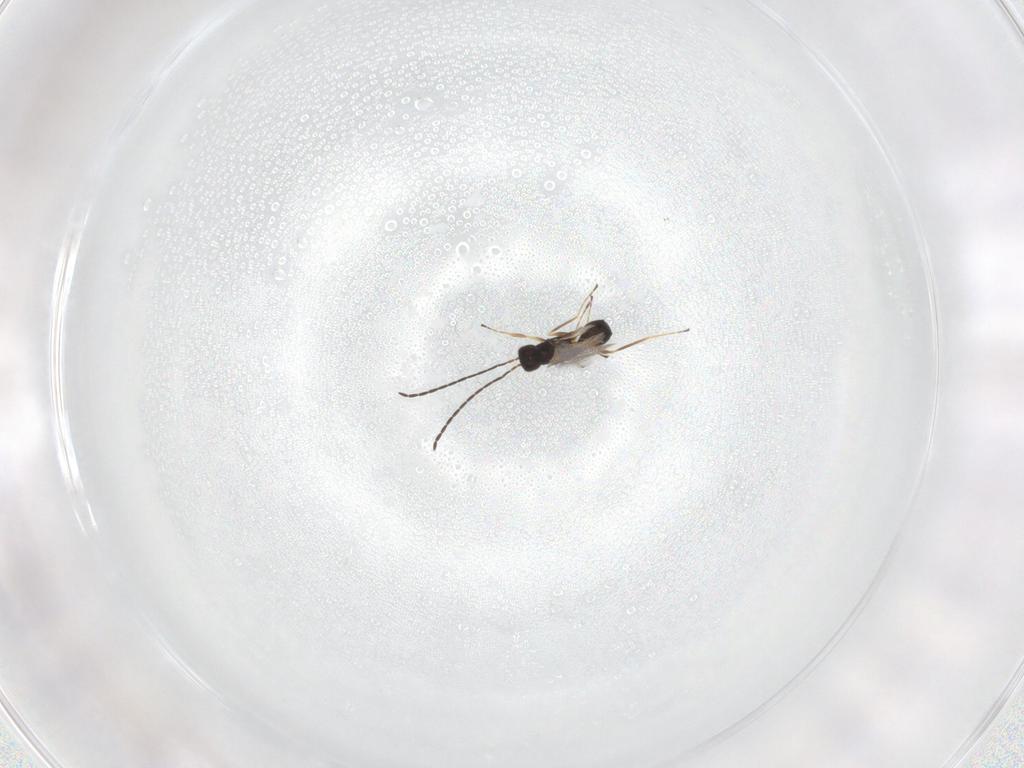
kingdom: Animalia
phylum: Arthropoda
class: Insecta
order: Hymenoptera
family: Diapriidae
